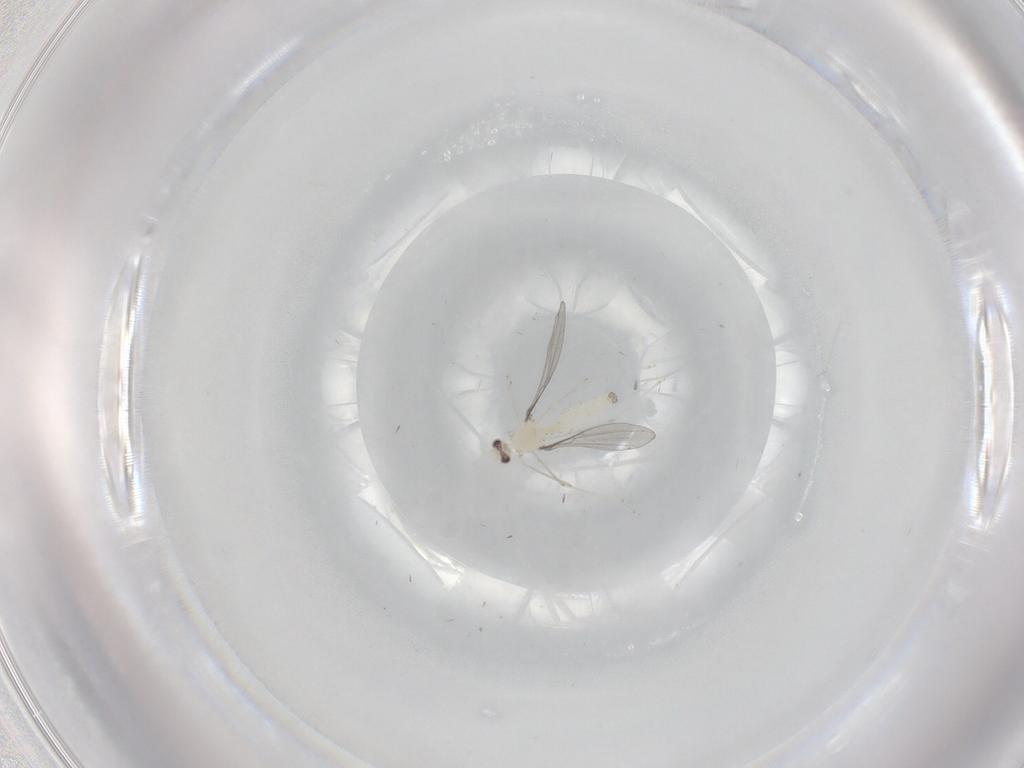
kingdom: Animalia
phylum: Arthropoda
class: Insecta
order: Diptera
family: Cecidomyiidae
